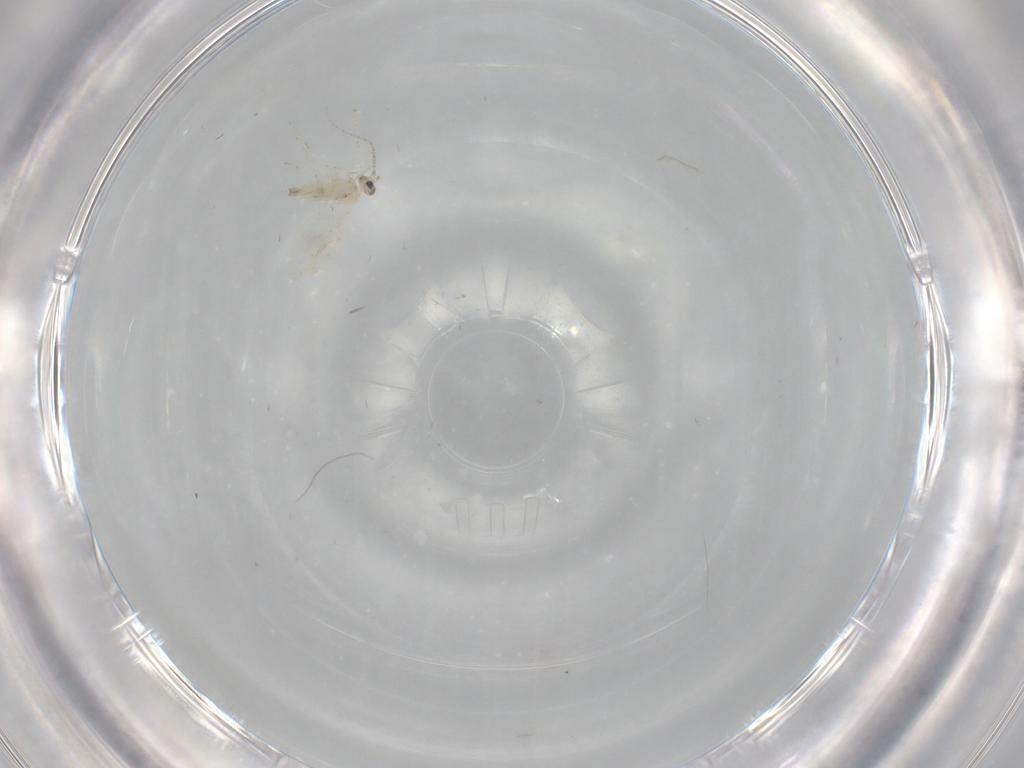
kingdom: Animalia
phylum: Arthropoda
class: Insecta
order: Diptera
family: Cecidomyiidae
